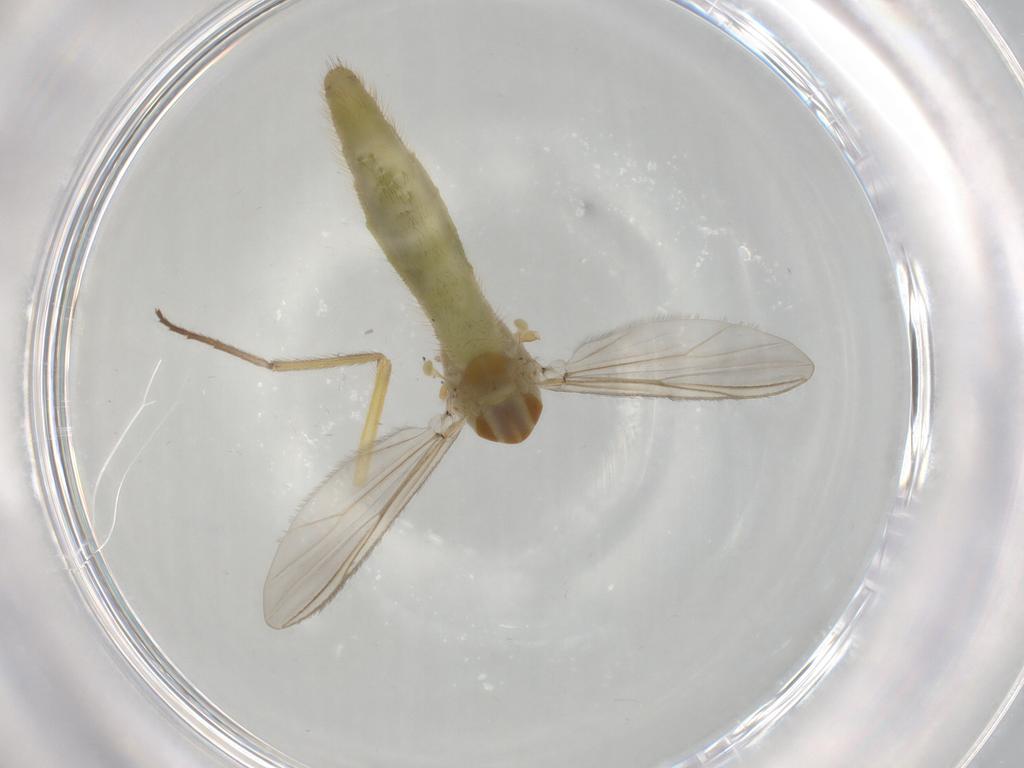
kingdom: Animalia
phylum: Arthropoda
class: Insecta
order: Diptera
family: Chironomidae
